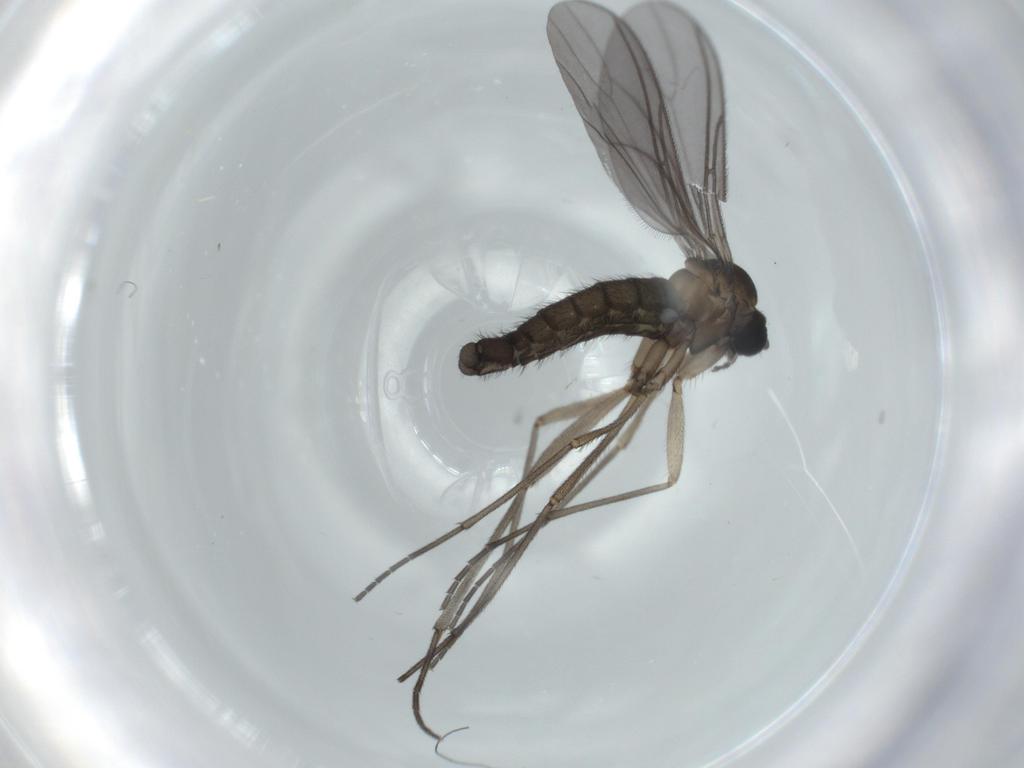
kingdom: Animalia
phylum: Arthropoda
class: Insecta
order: Diptera
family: Sciaridae
